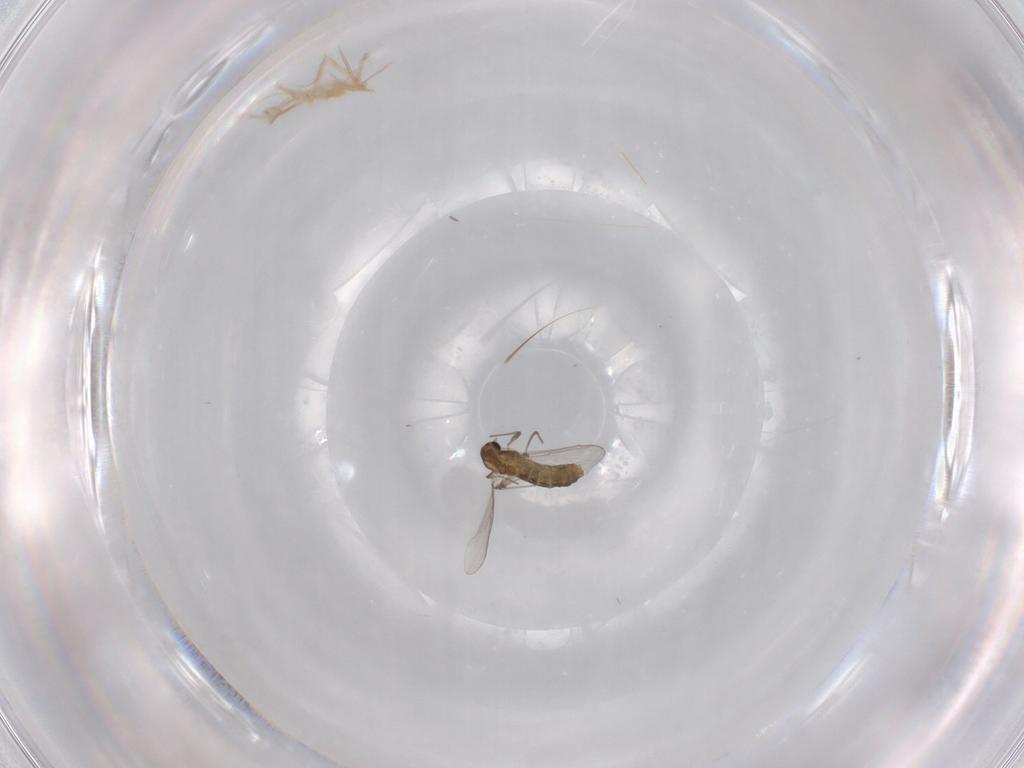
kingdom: Animalia
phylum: Arthropoda
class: Insecta
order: Diptera
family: Chironomidae
